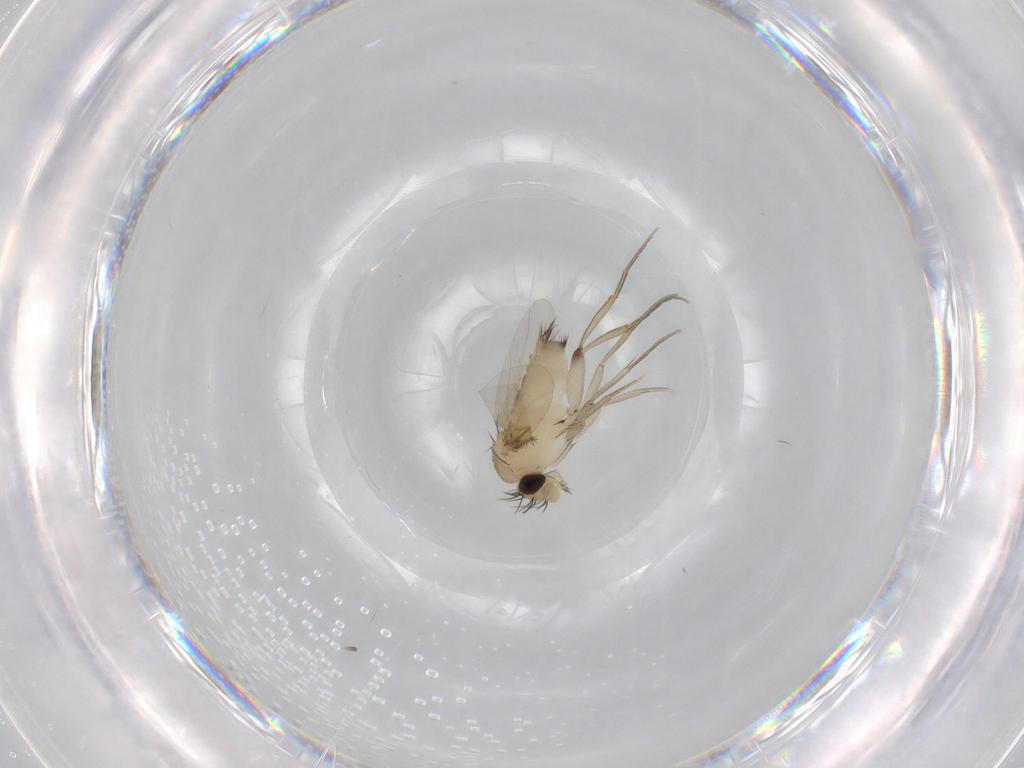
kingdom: Animalia
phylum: Arthropoda
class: Insecta
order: Diptera
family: Phoridae
